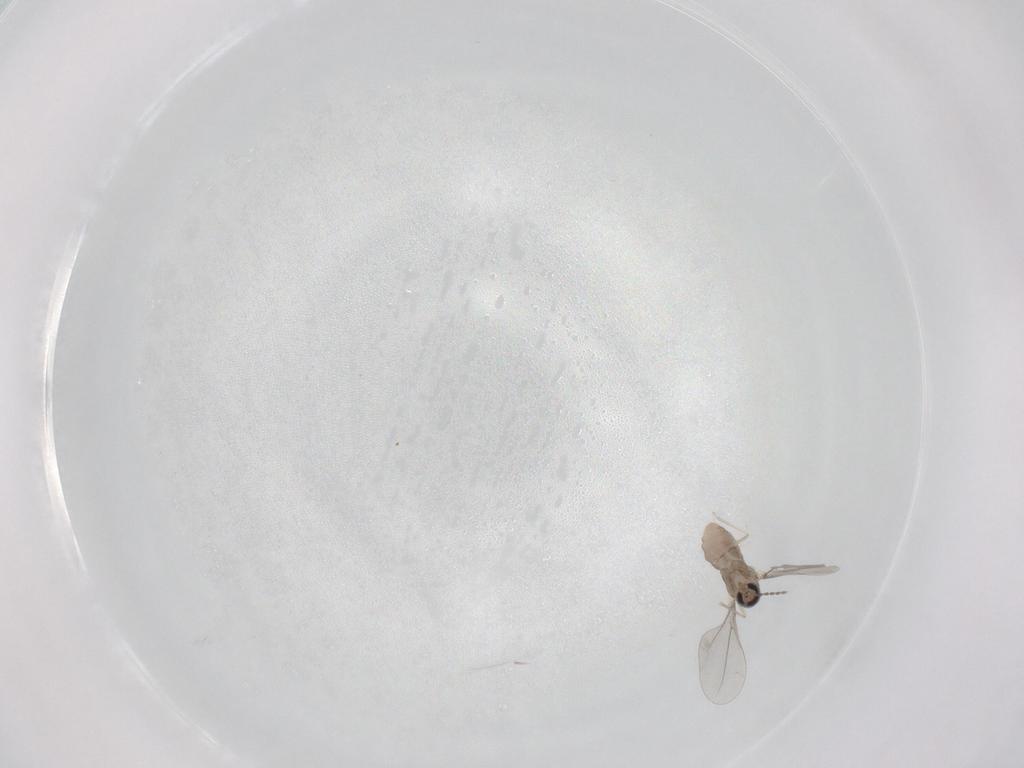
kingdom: Animalia
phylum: Arthropoda
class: Insecta
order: Diptera
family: Cecidomyiidae
